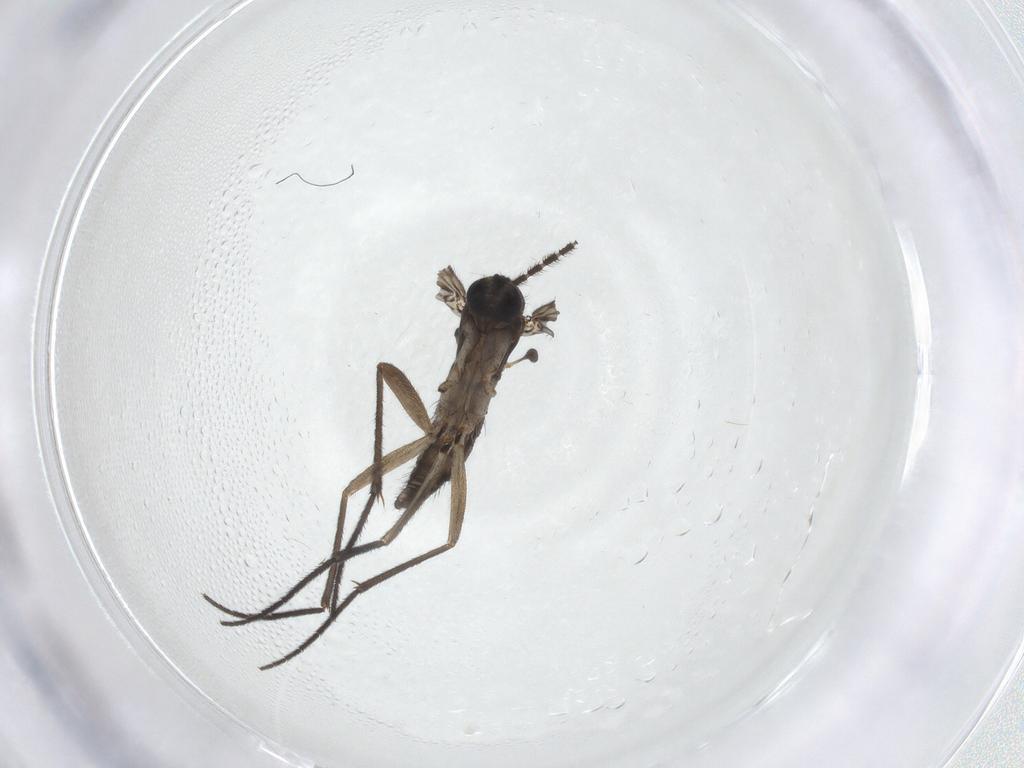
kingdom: Animalia
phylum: Arthropoda
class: Insecta
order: Diptera
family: Sciaridae
